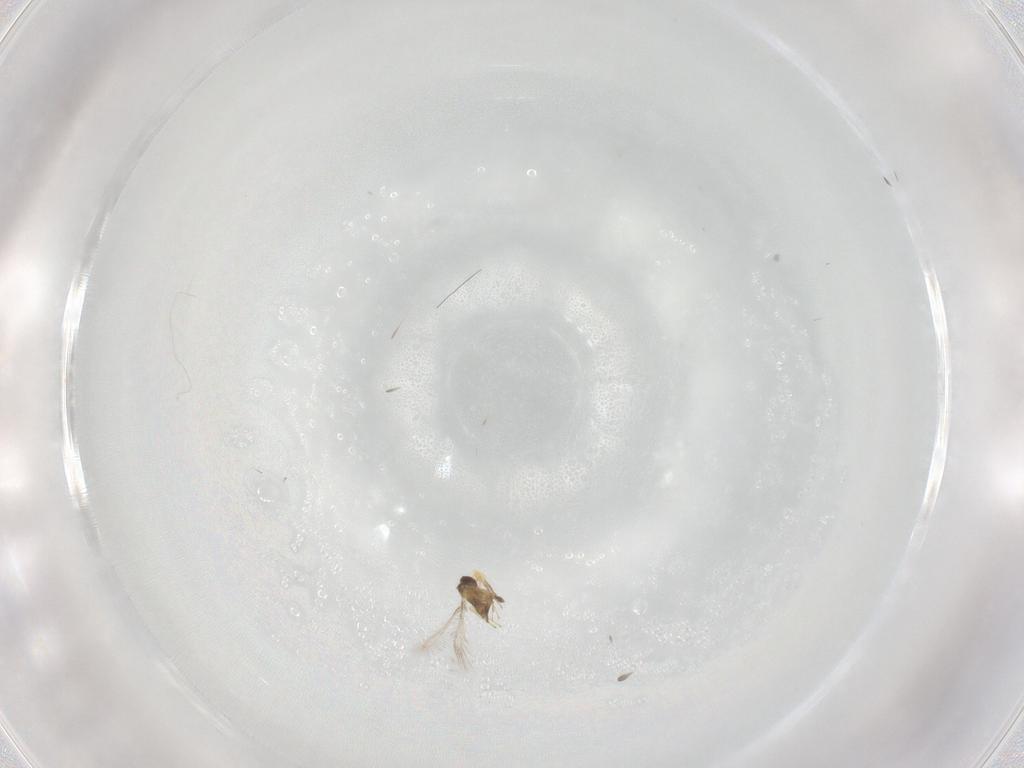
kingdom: Animalia
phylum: Arthropoda
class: Insecta
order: Hymenoptera
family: Mymaridae
